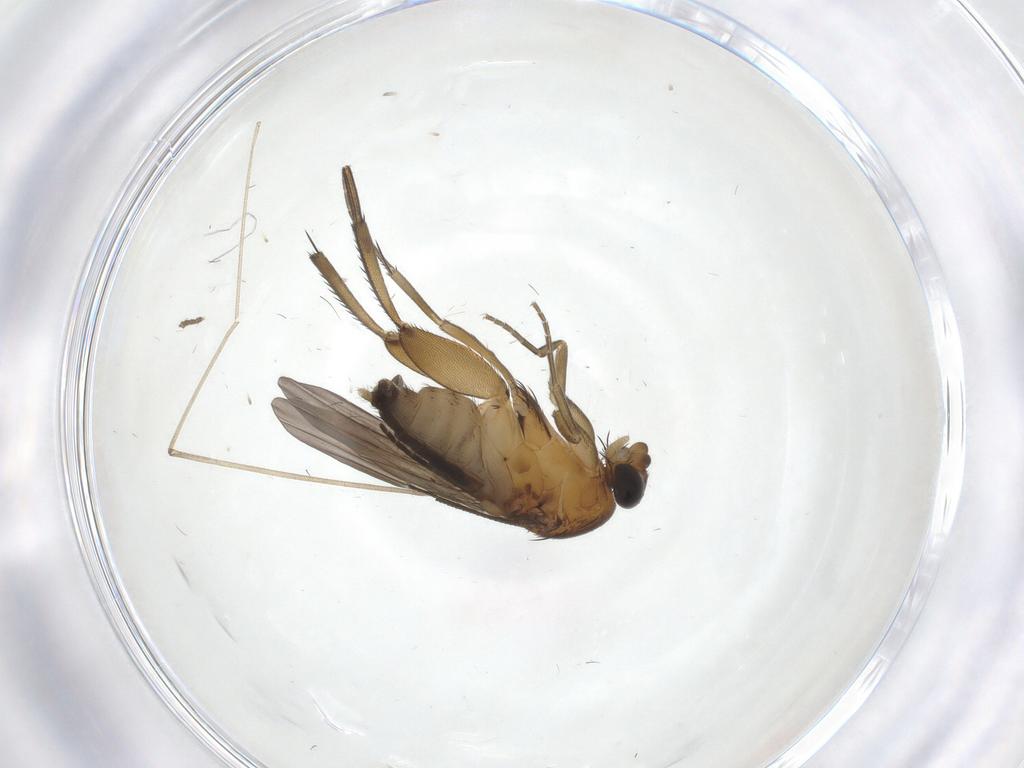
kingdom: Animalia
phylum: Arthropoda
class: Insecta
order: Diptera
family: Phoridae
